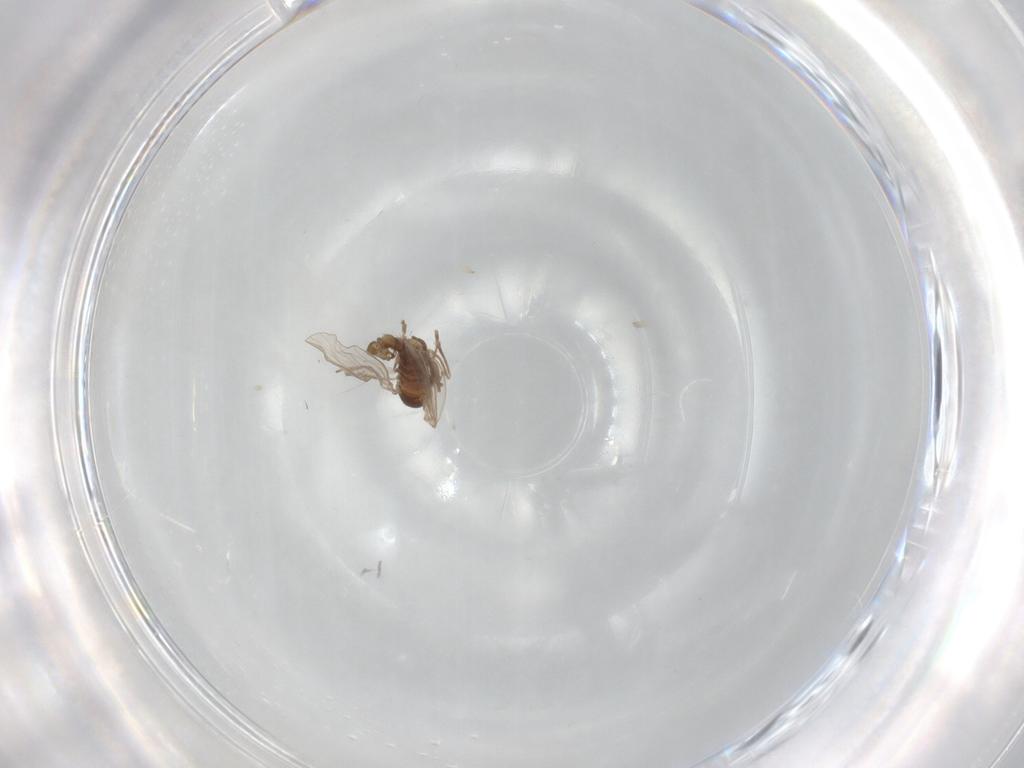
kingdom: Animalia
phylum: Arthropoda
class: Insecta
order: Diptera
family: Psychodidae
